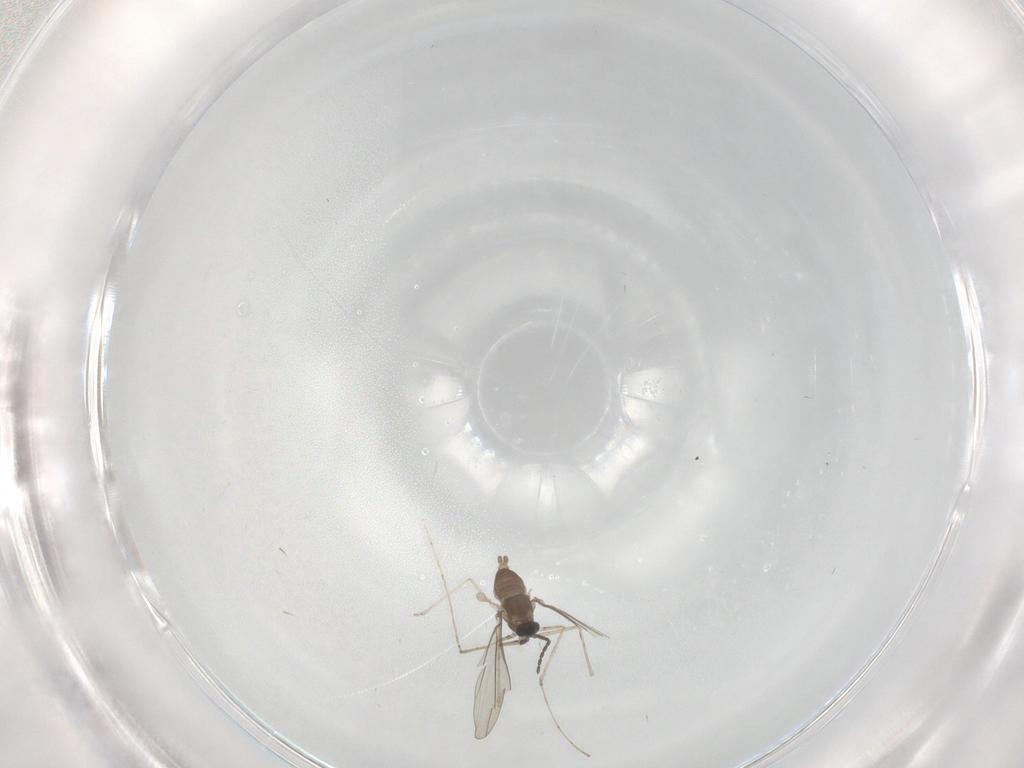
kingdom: Animalia
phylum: Arthropoda
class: Insecta
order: Diptera
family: Cecidomyiidae
